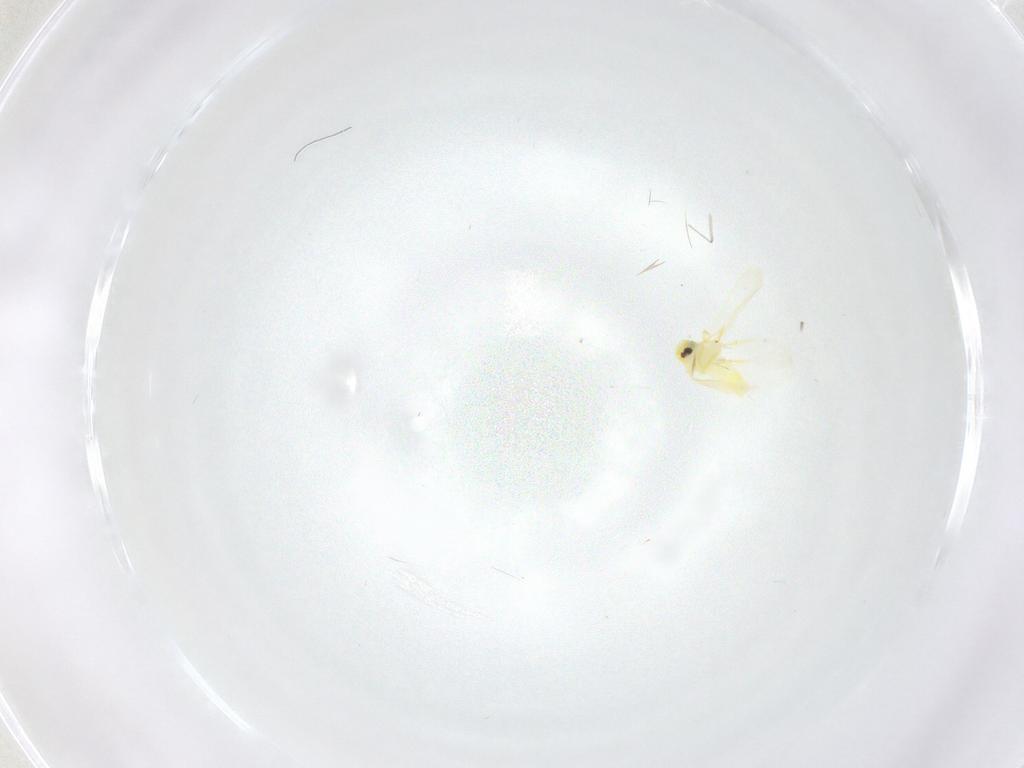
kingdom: Animalia
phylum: Arthropoda
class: Insecta
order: Hemiptera
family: Aleyrodidae
